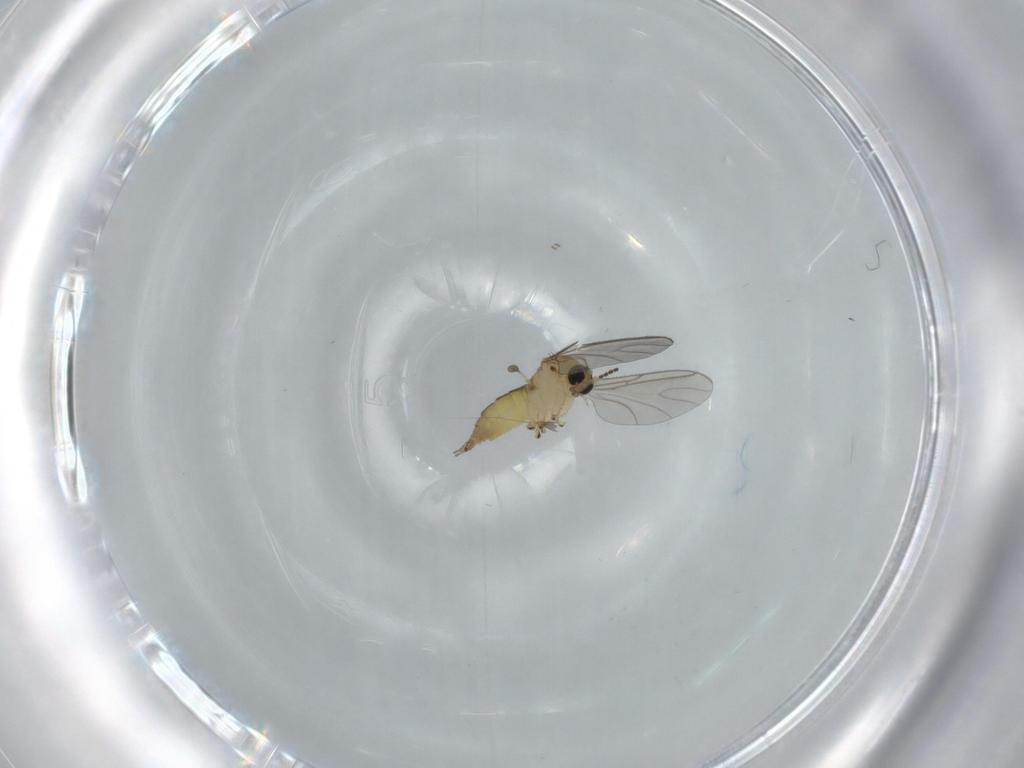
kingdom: Animalia
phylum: Arthropoda
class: Insecta
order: Diptera
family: Sciaridae
